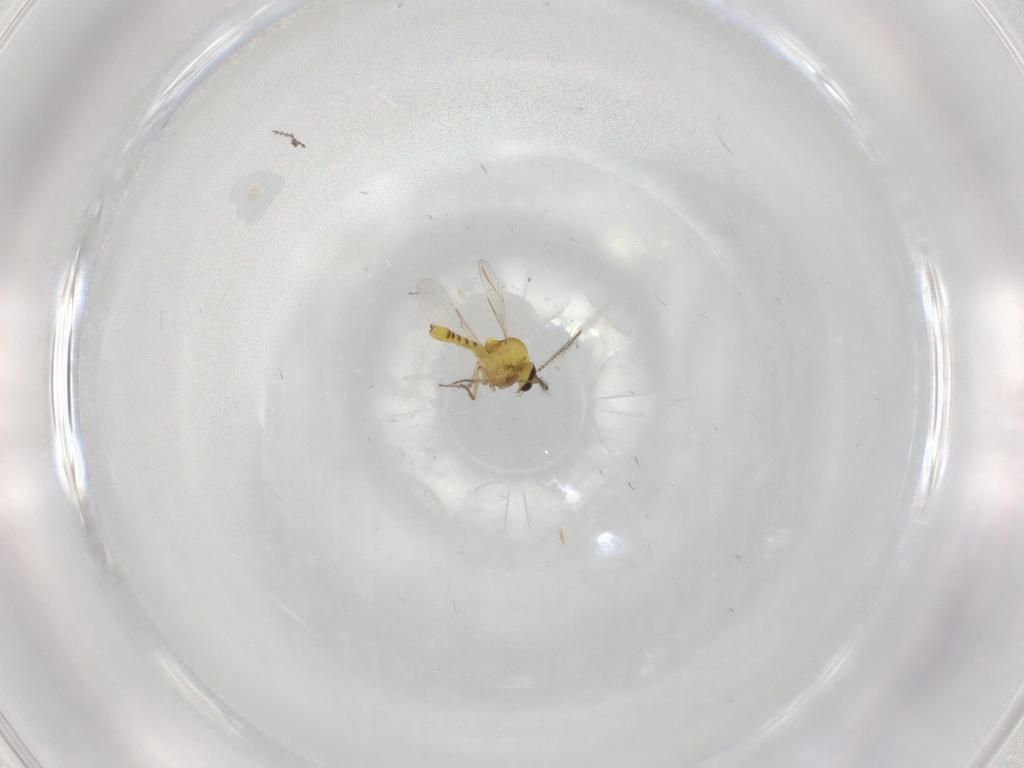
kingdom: Animalia
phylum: Arthropoda
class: Insecta
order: Diptera
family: Ceratopogonidae
